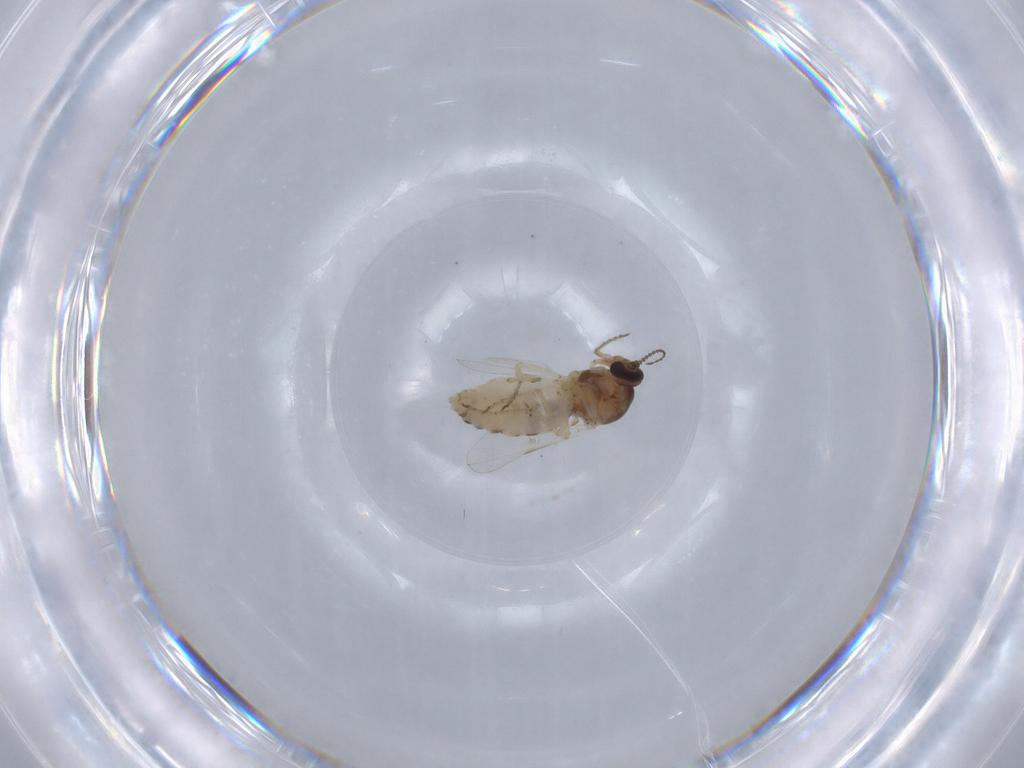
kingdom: Animalia
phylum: Arthropoda
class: Insecta
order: Diptera
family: Ceratopogonidae
